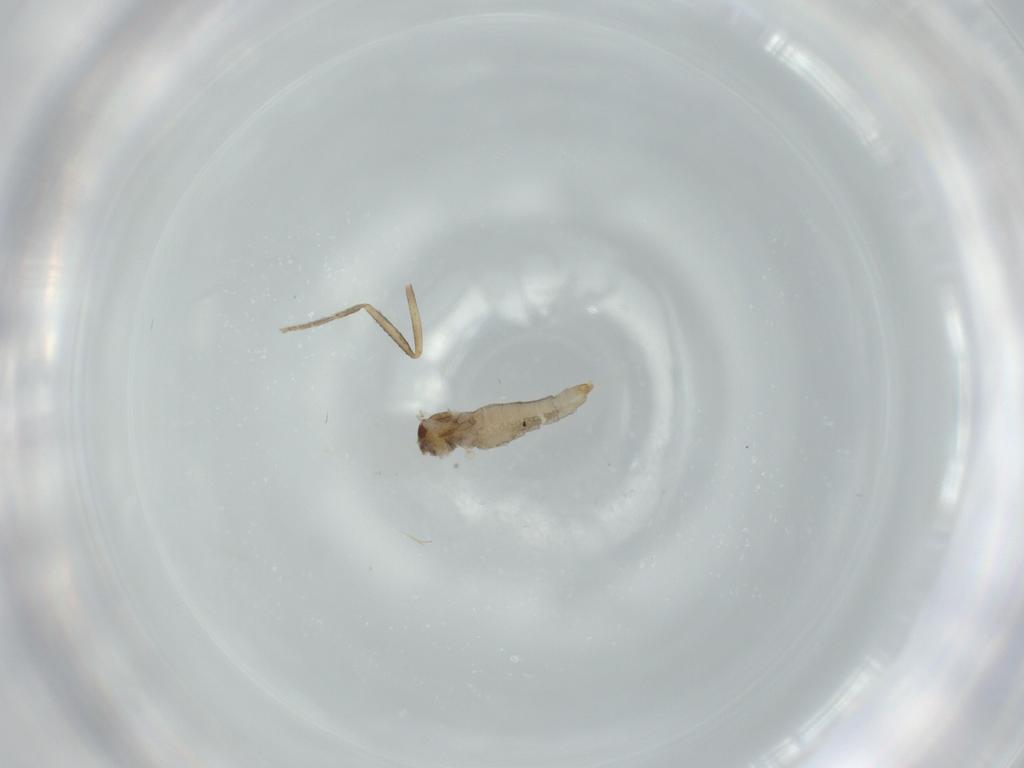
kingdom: Animalia
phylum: Arthropoda
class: Insecta
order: Diptera
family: Cecidomyiidae
